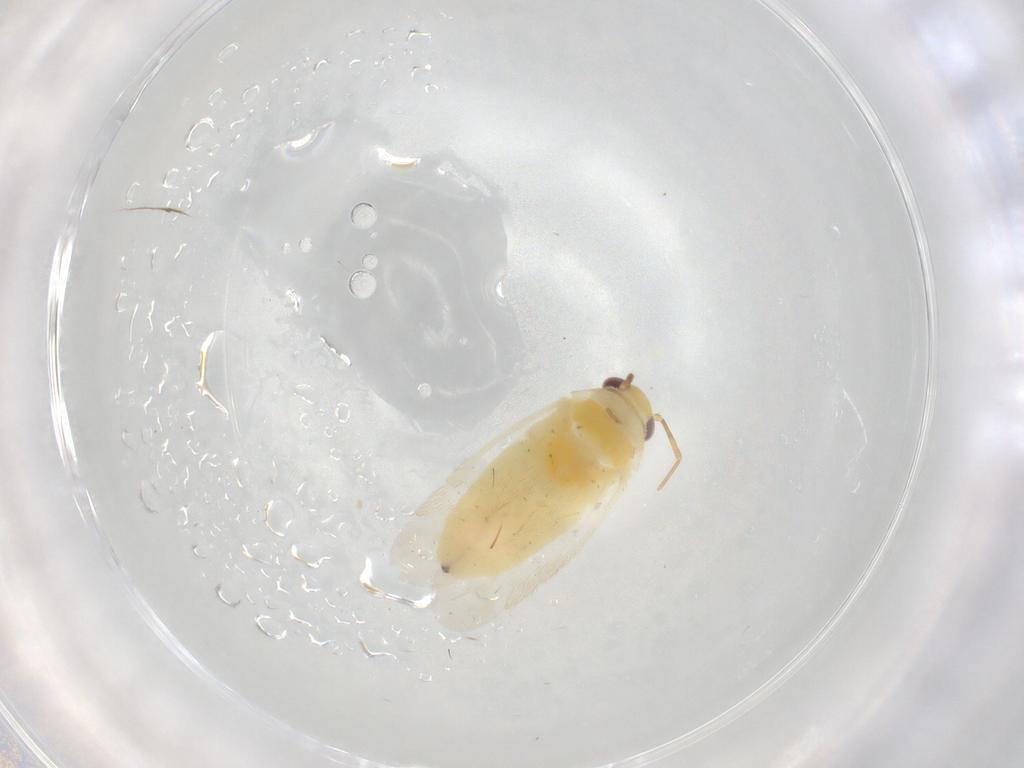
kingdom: Animalia
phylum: Arthropoda
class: Insecta
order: Hemiptera
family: Miridae
